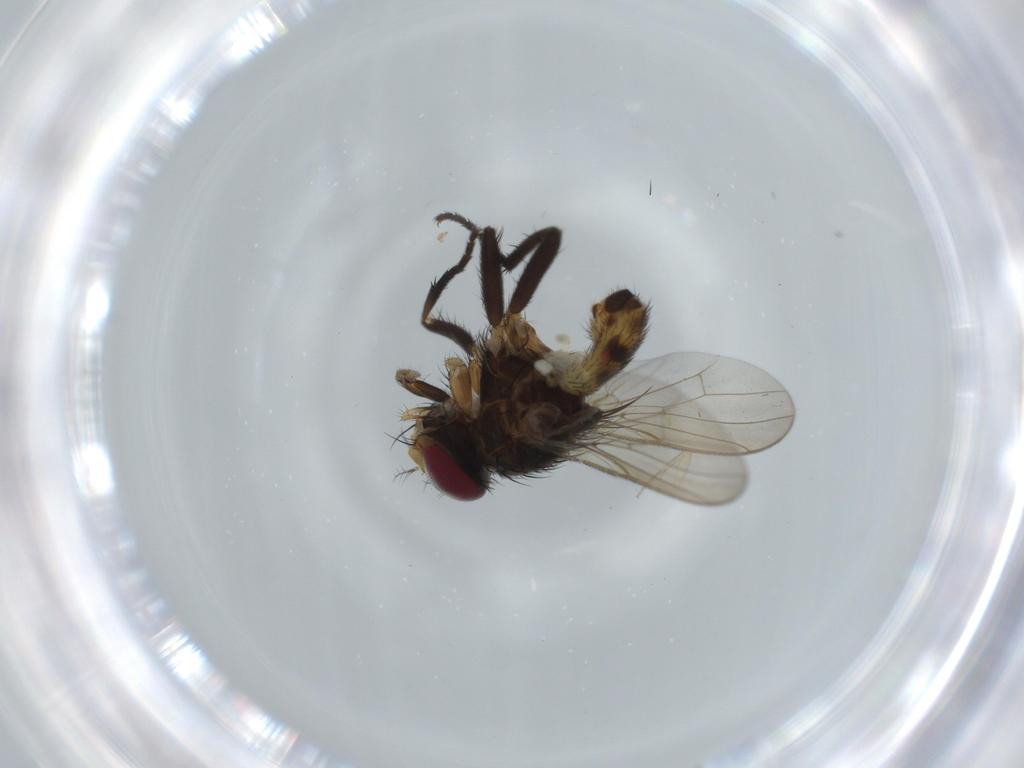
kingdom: Animalia
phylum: Arthropoda
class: Insecta
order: Diptera
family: Anthomyiidae
